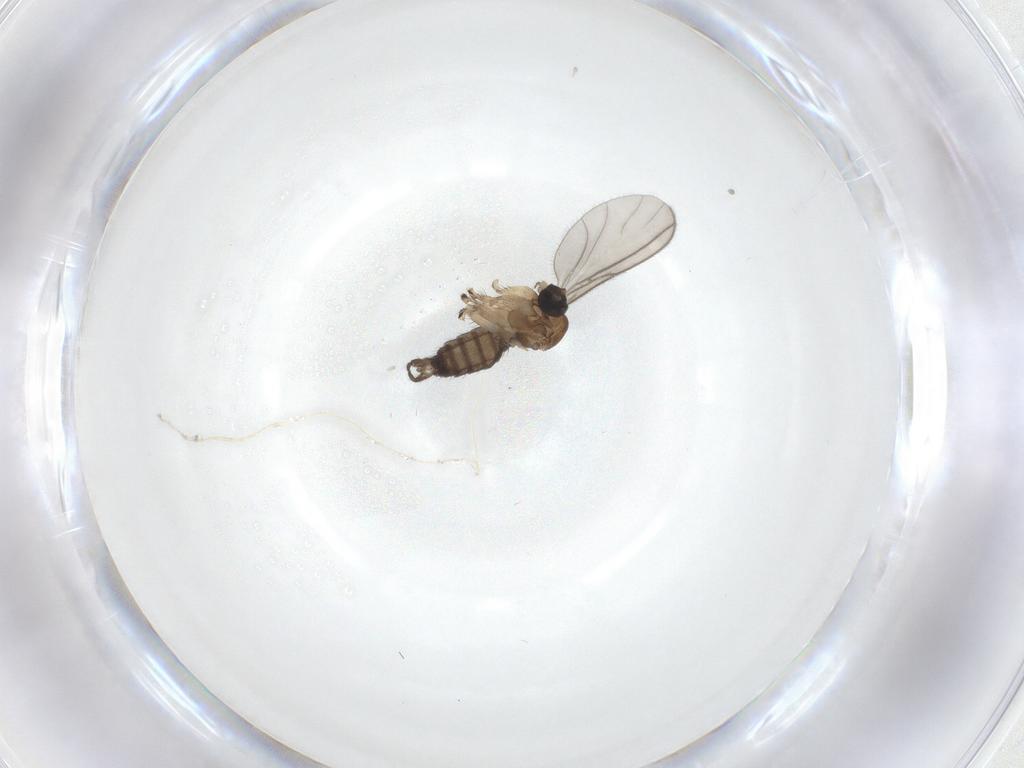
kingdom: Animalia
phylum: Arthropoda
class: Insecta
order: Diptera
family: Sciaridae
